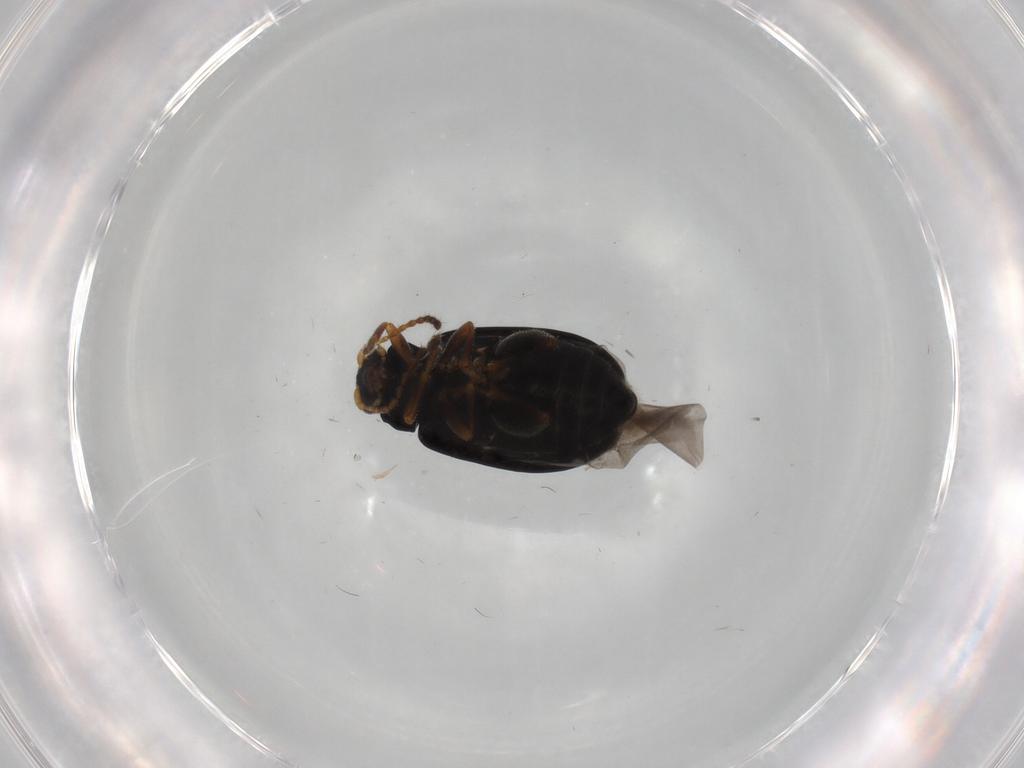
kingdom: Animalia
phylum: Arthropoda
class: Insecta
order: Coleoptera
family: Chrysomelidae
